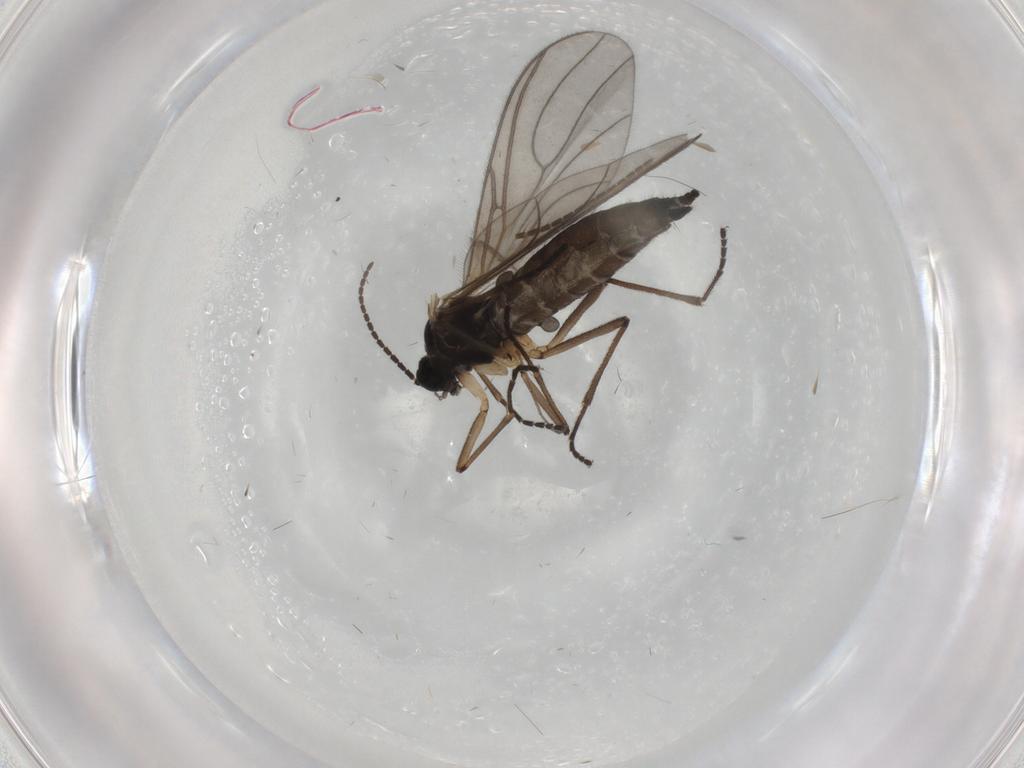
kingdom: Animalia
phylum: Arthropoda
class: Insecta
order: Diptera
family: Sciaridae
